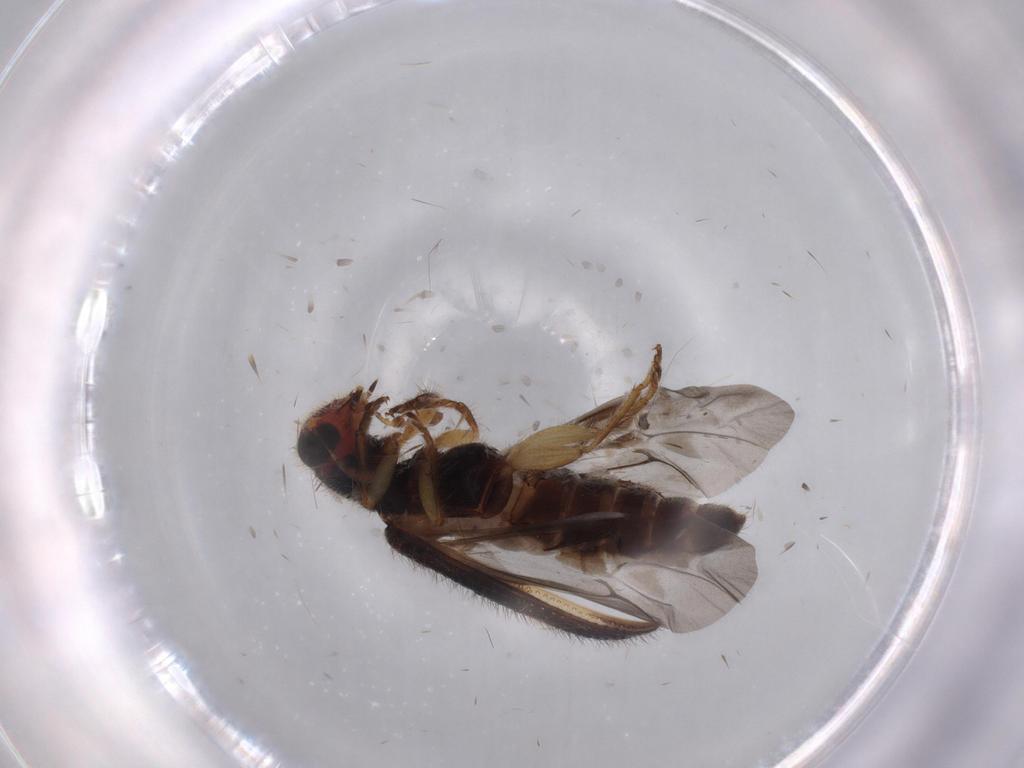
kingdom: Animalia
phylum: Arthropoda
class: Insecta
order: Coleoptera
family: Cleridae
